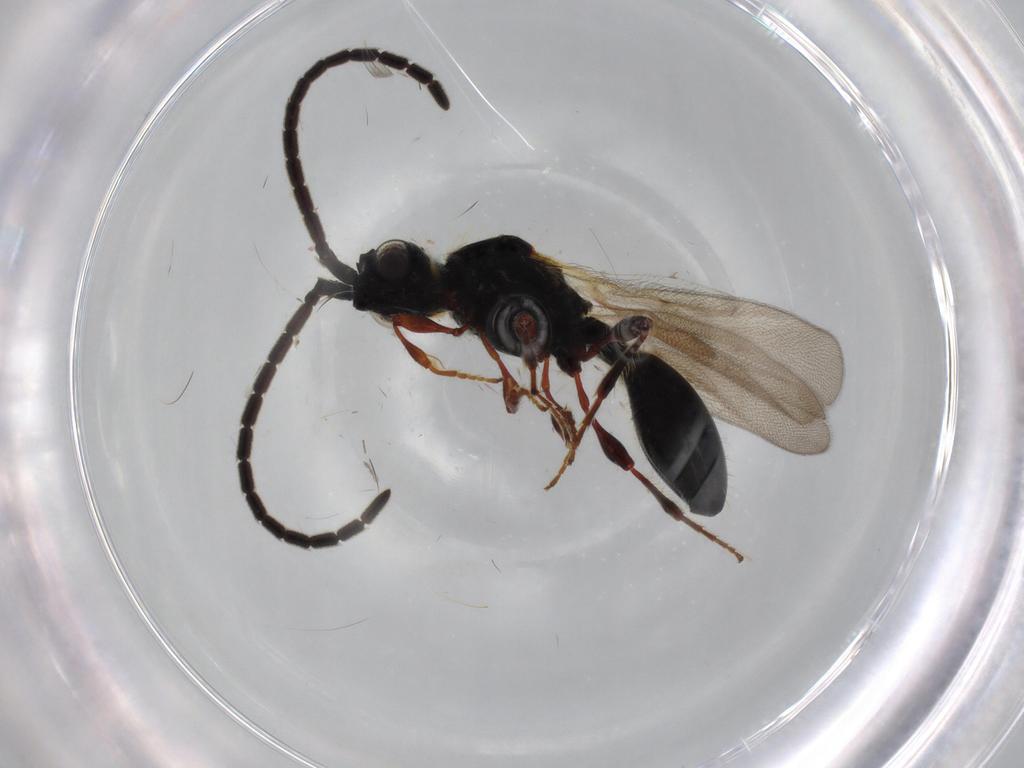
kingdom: Animalia
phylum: Arthropoda
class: Insecta
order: Hymenoptera
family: Diapriidae
